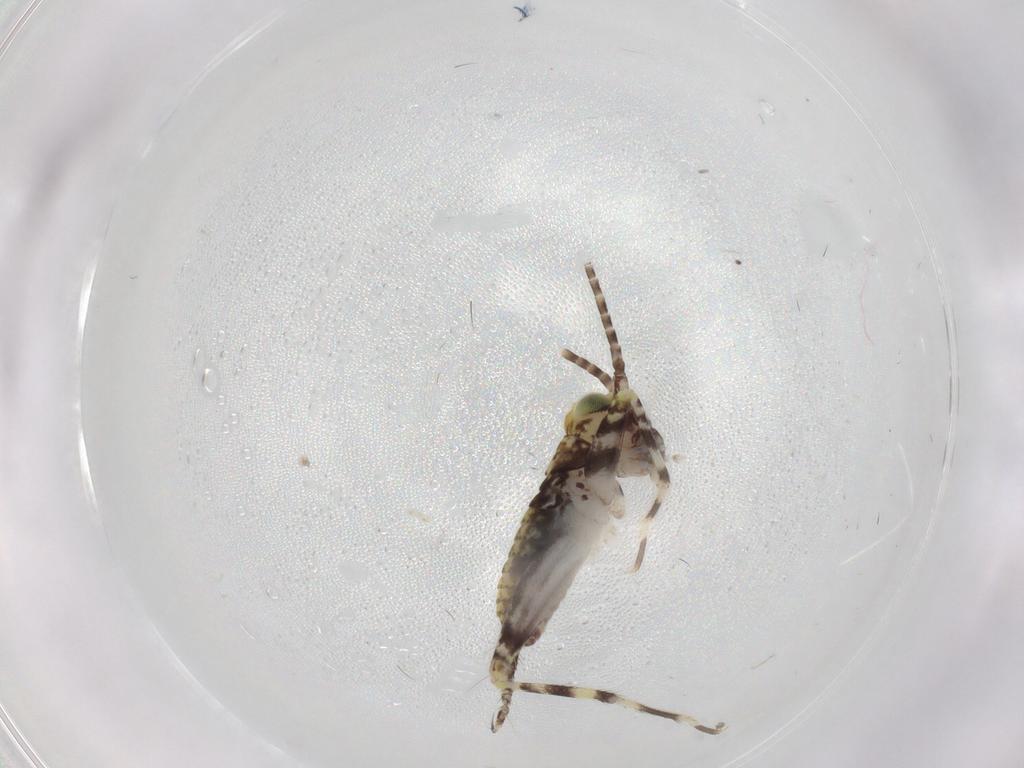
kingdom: Animalia
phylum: Arthropoda
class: Insecta
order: Orthoptera
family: Gryllidae
